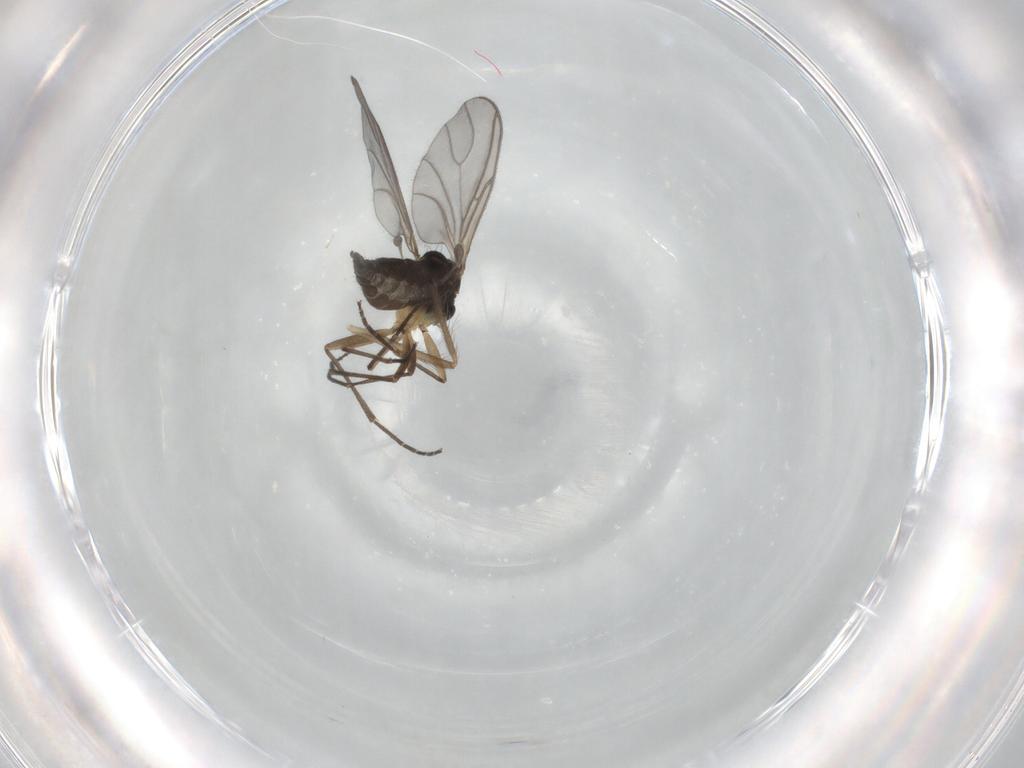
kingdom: Animalia
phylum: Arthropoda
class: Insecta
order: Diptera
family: Sciaridae
